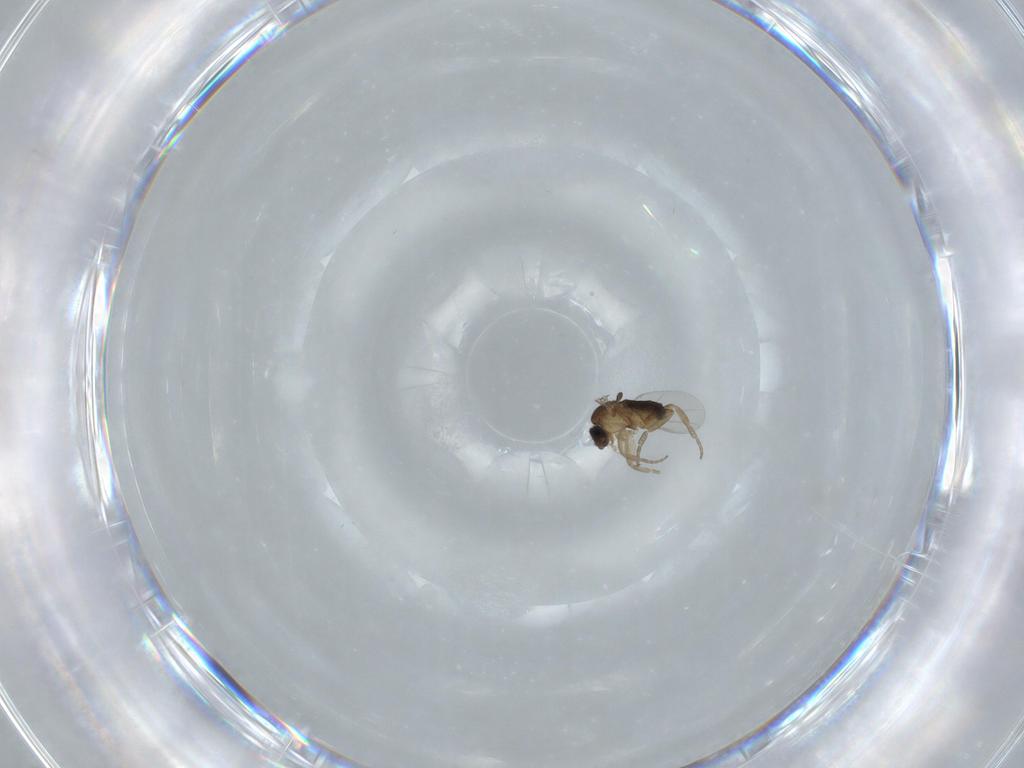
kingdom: Animalia
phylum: Arthropoda
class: Insecta
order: Diptera
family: Phoridae
